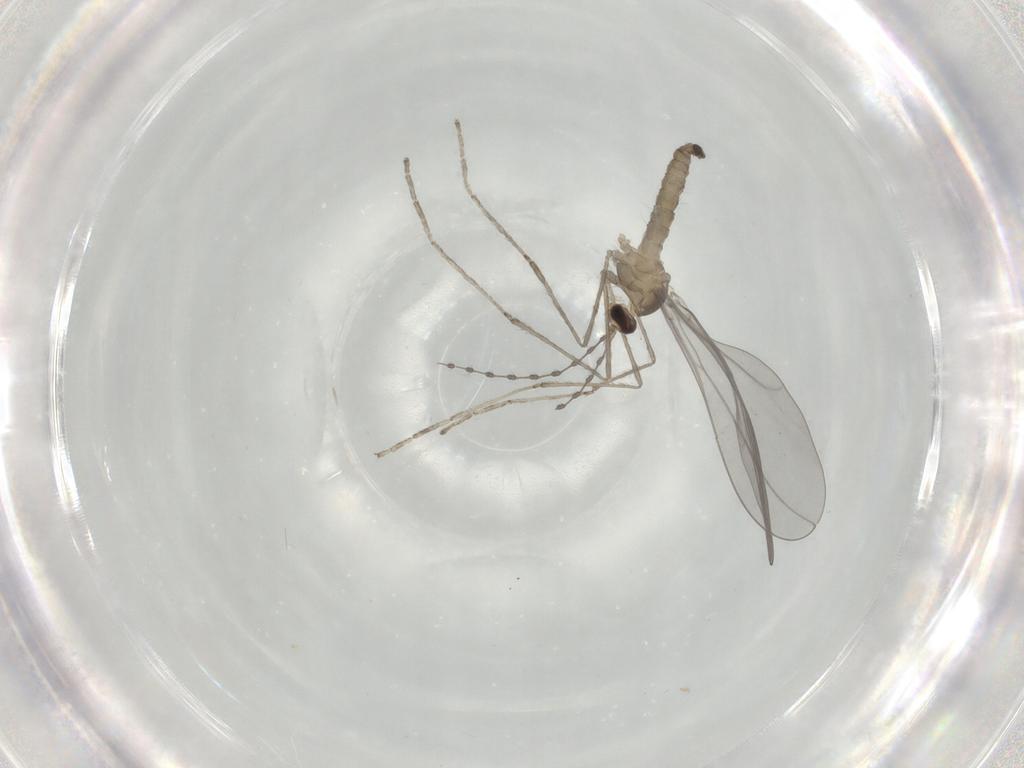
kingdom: Animalia
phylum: Arthropoda
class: Insecta
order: Diptera
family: Cecidomyiidae
